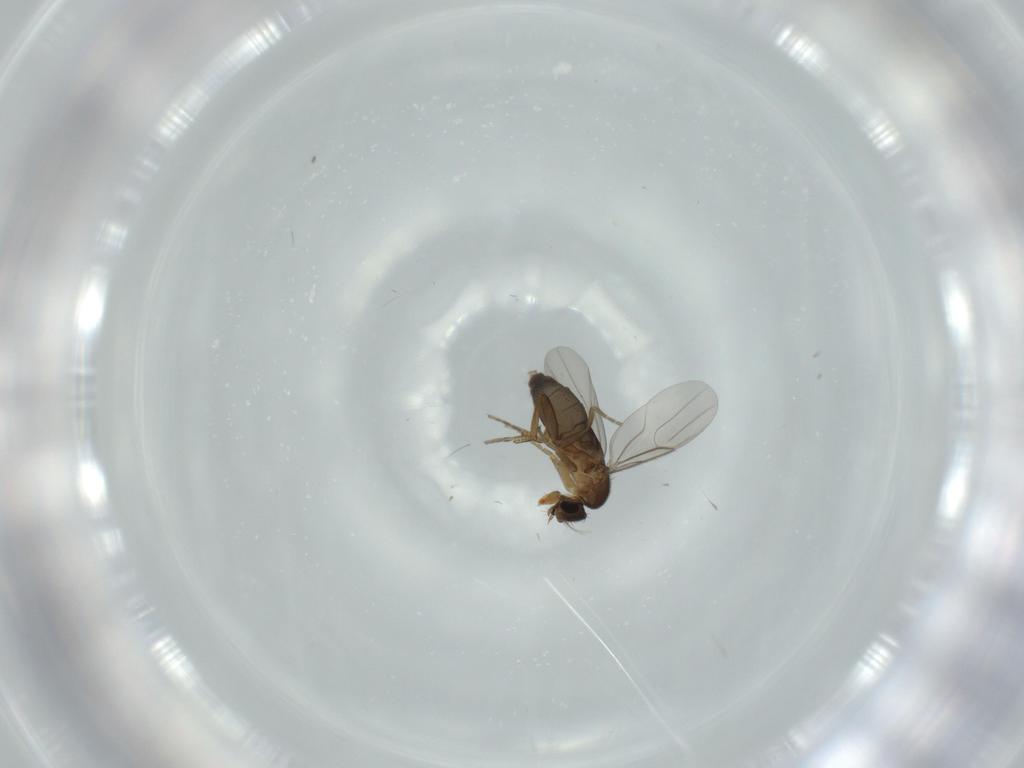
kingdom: Animalia
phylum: Arthropoda
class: Insecta
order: Diptera
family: Phoridae
